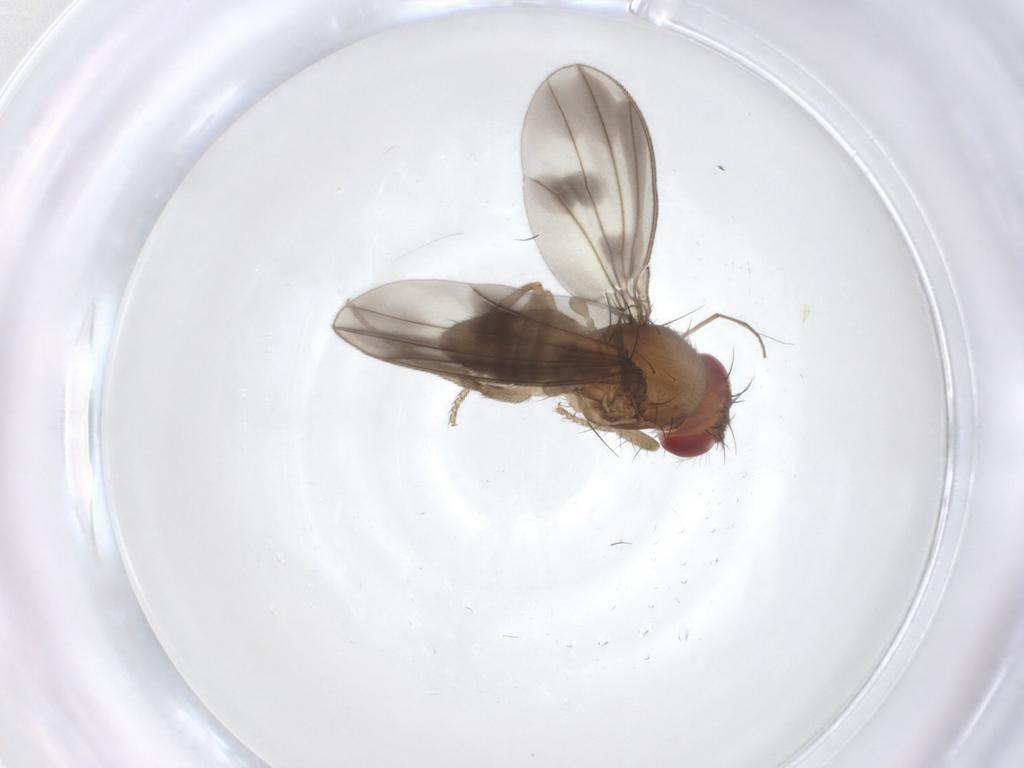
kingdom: Animalia
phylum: Arthropoda
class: Insecta
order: Diptera
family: Drosophilidae
